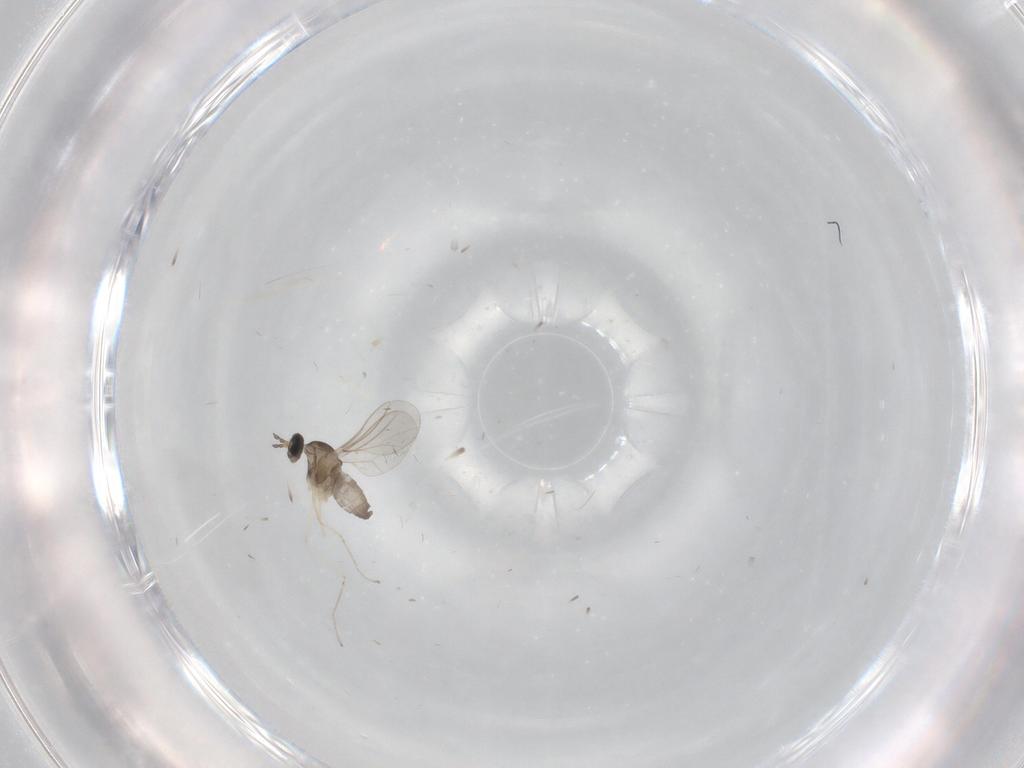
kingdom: Animalia
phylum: Arthropoda
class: Insecta
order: Diptera
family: Cecidomyiidae
